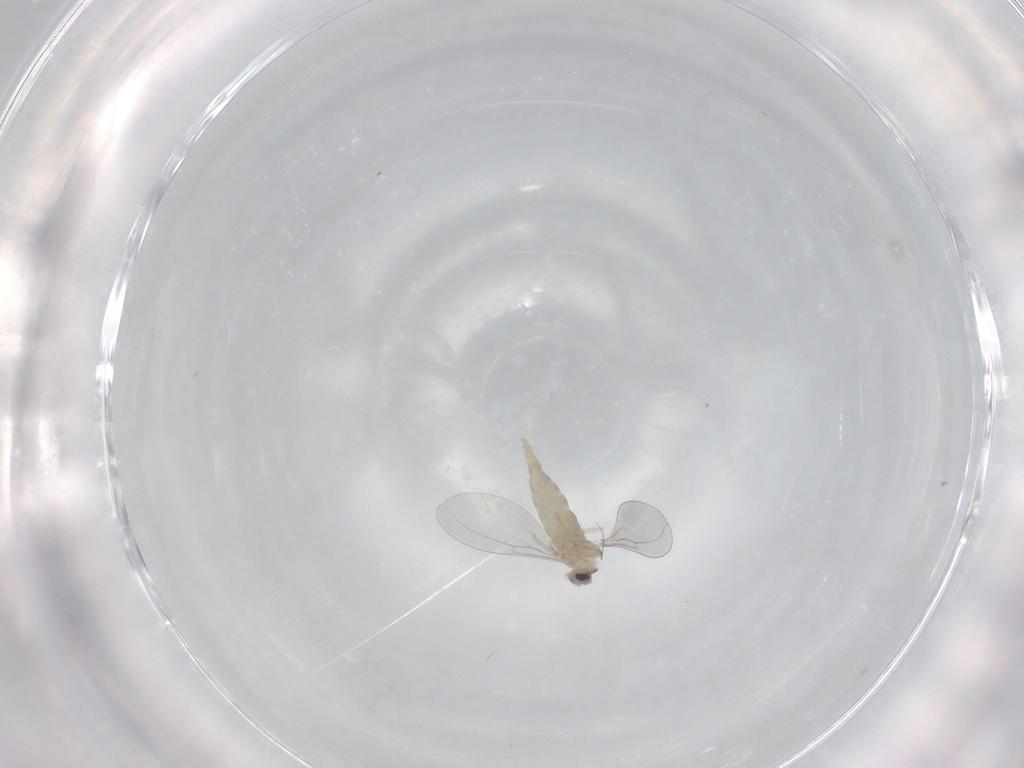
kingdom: Animalia
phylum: Arthropoda
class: Insecta
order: Diptera
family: Cecidomyiidae
